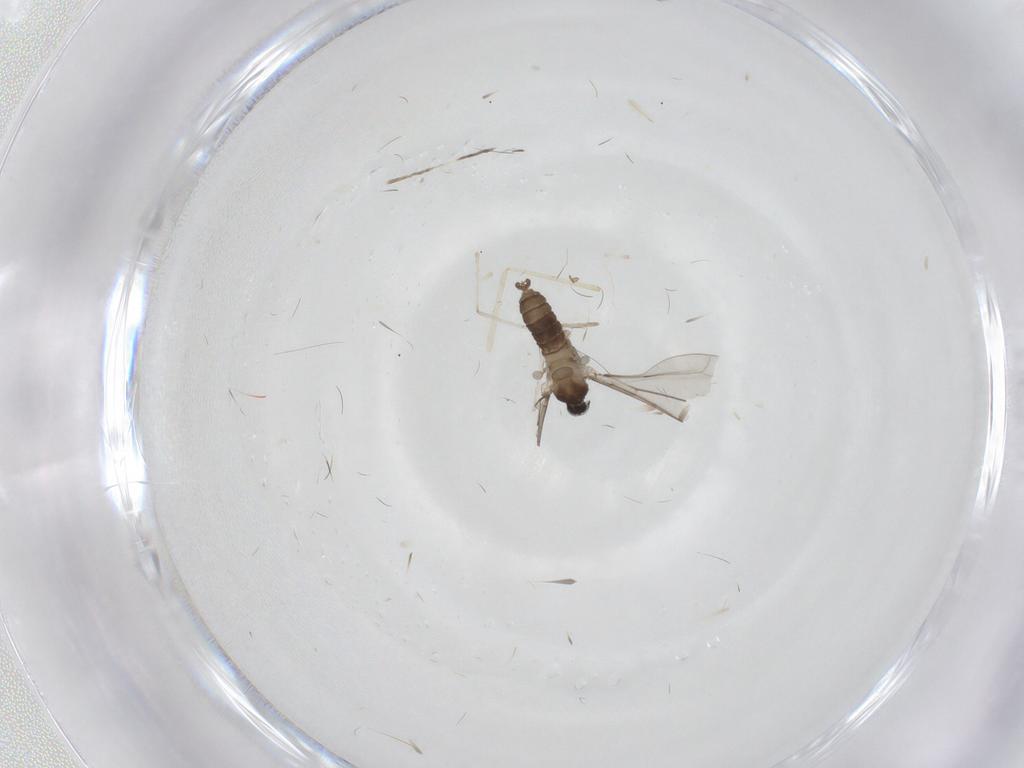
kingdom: Animalia
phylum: Arthropoda
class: Insecta
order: Diptera
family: Cecidomyiidae
